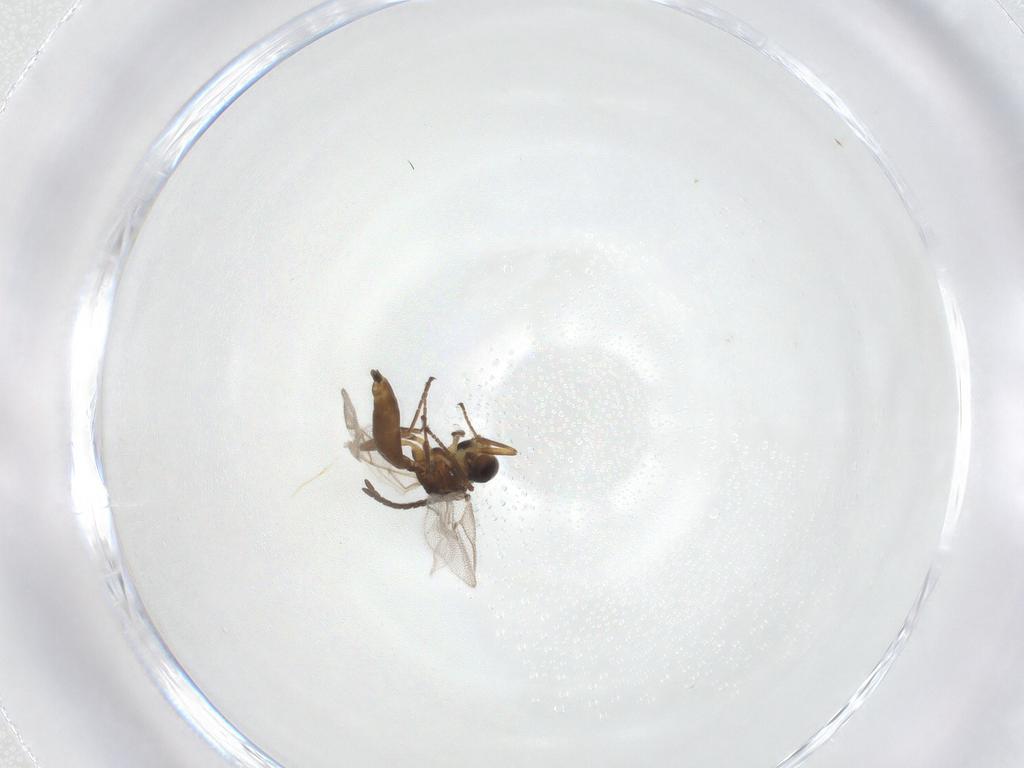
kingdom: Animalia
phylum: Arthropoda
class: Insecta
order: Hymenoptera
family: Braconidae
